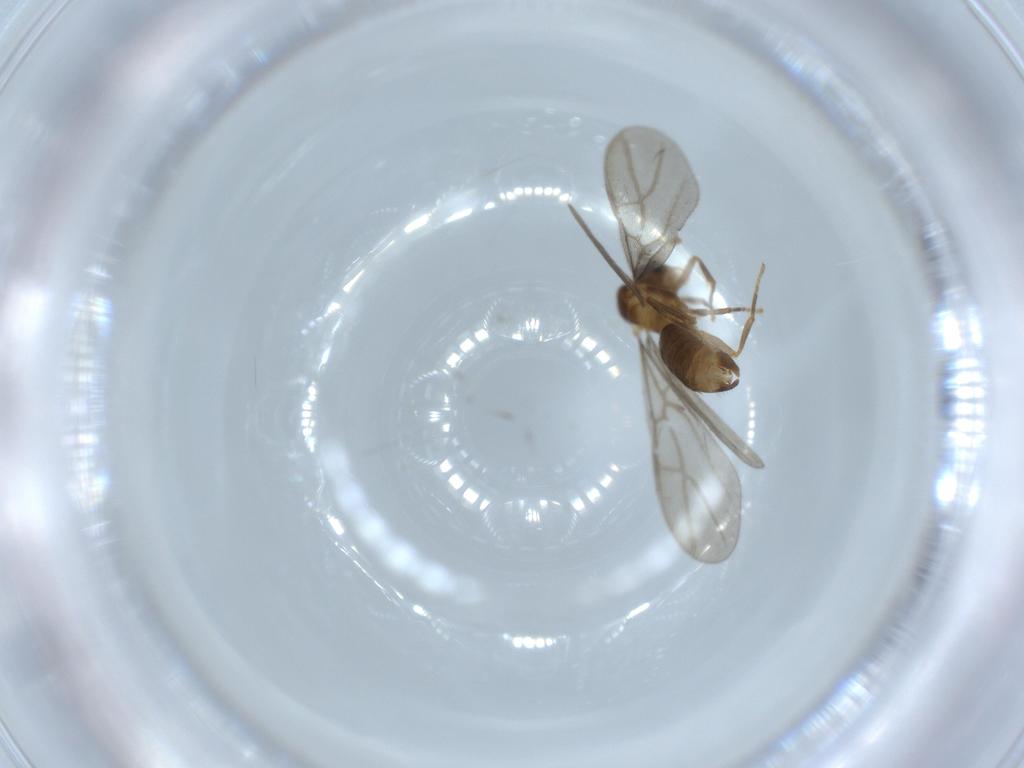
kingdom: Animalia
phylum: Arthropoda
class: Insecta
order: Hymenoptera
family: Formicidae
